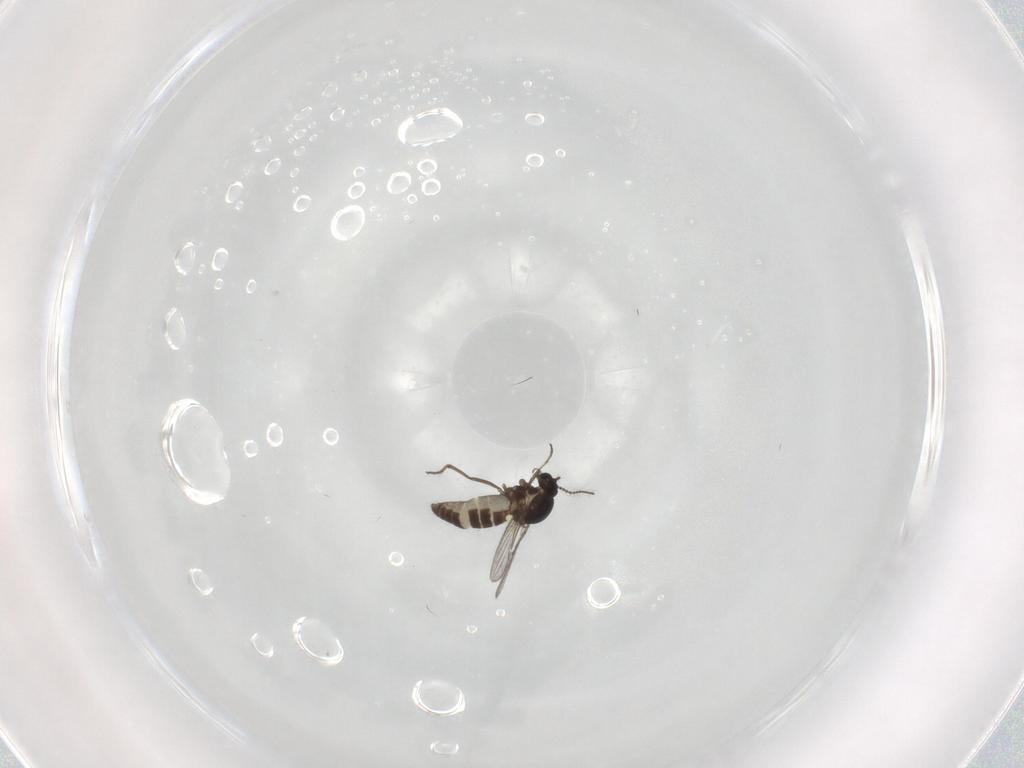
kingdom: Animalia
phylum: Arthropoda
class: Insecta
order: Diptera
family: Ceratopogonidae
